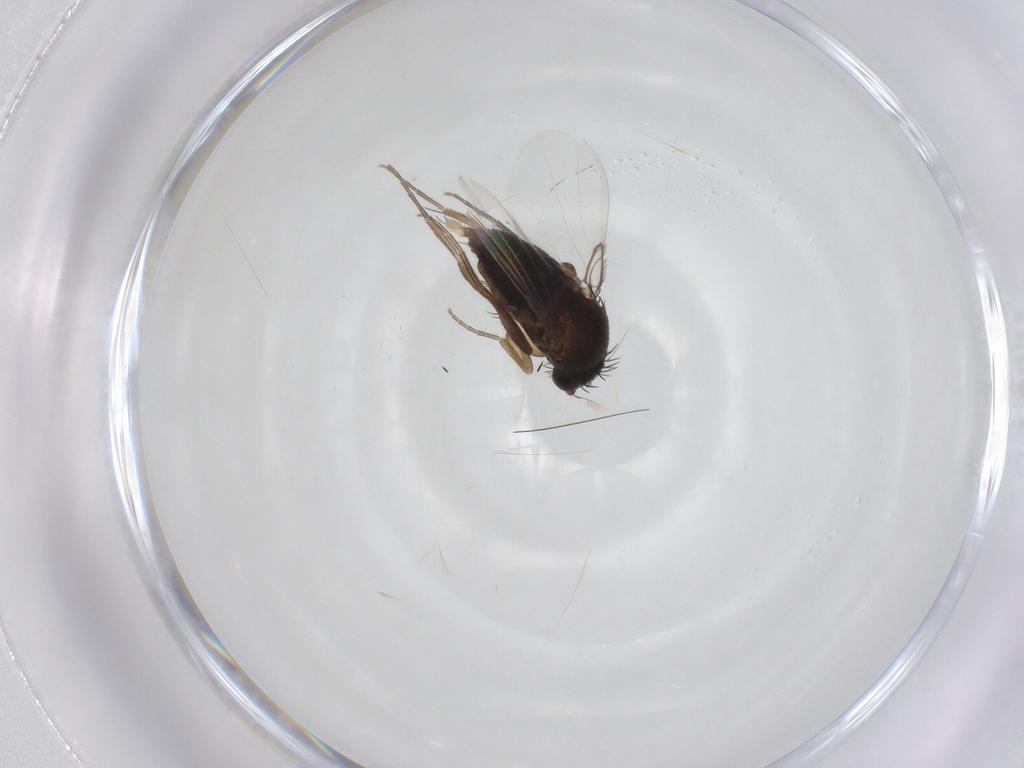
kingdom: Animalia
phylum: Arthropoda
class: Insecta
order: Diptera
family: Phoridae
